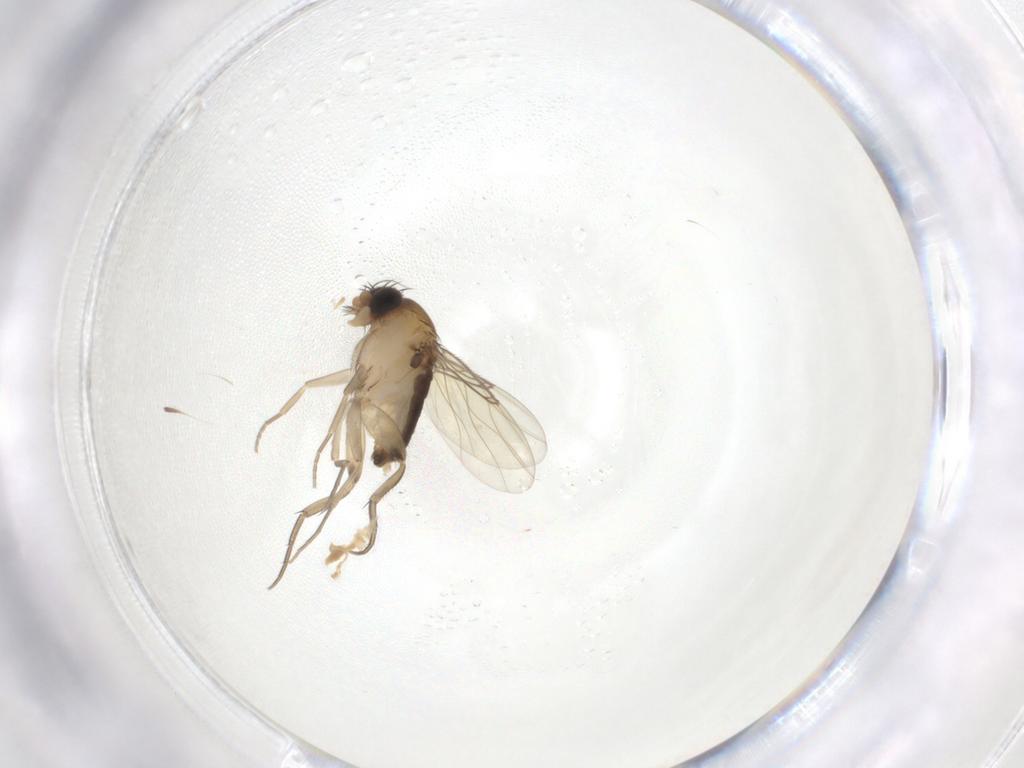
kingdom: Animalia
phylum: Arthropoda
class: Insecta
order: Diptera
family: Phoridae
